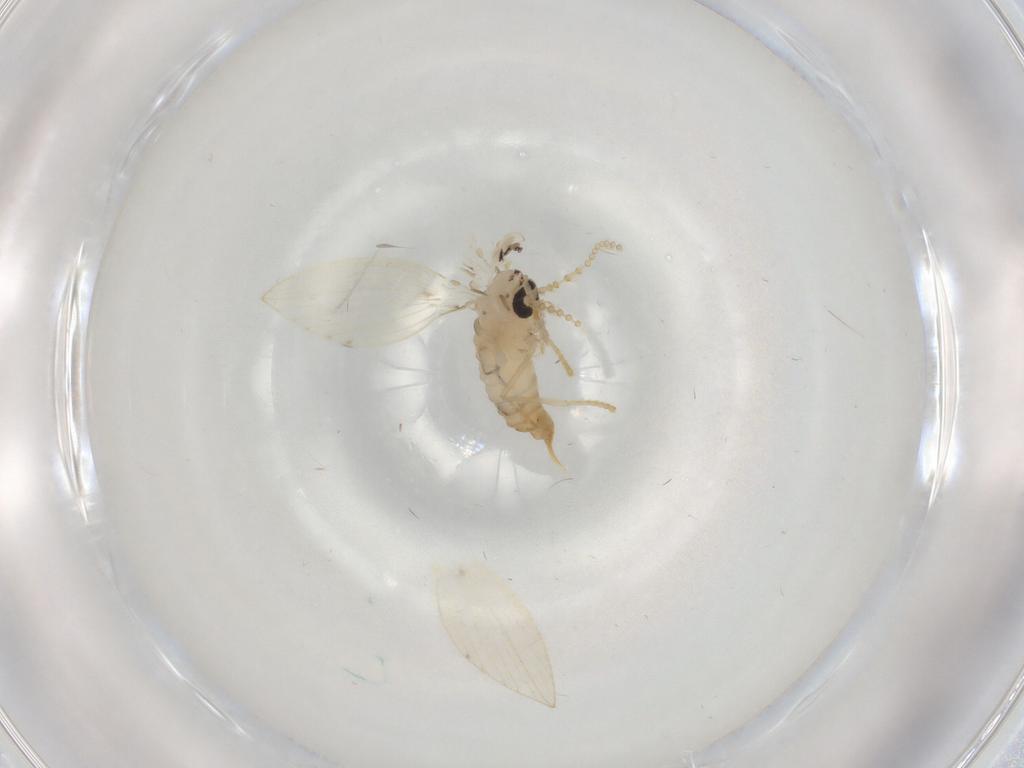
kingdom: Animalia
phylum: Arthropoda
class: Insecta
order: Diptera
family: Psychodidae
